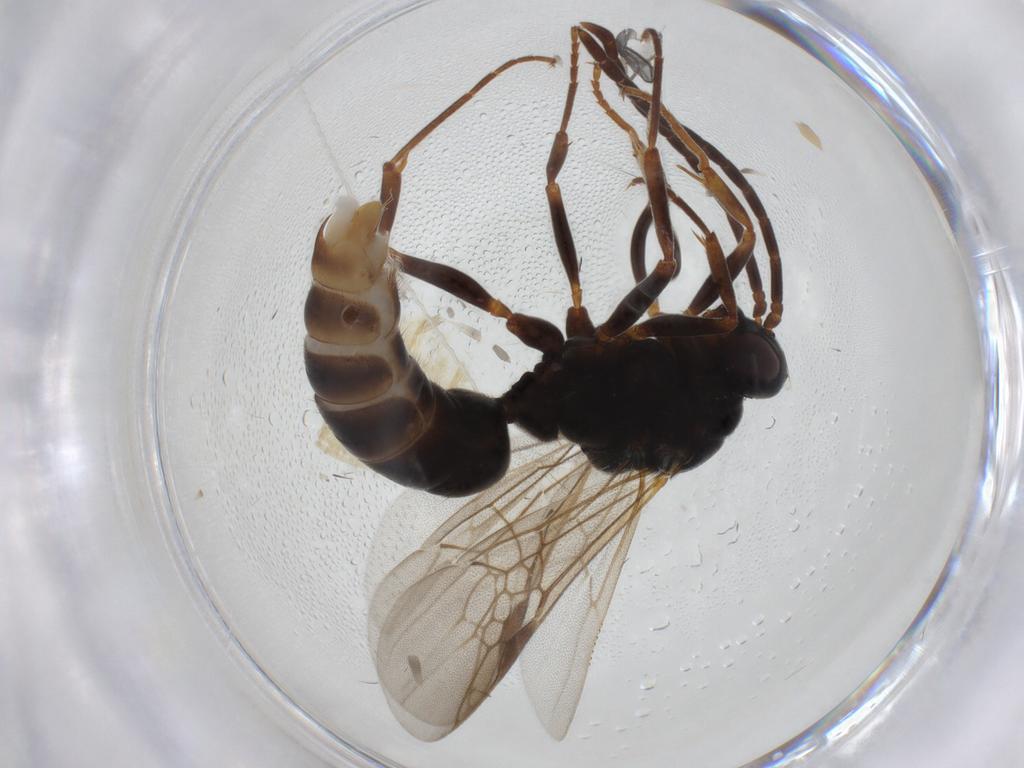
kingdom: Animalia
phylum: Arthropoda
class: Insecta
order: Hymenoptera
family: Formicidae
